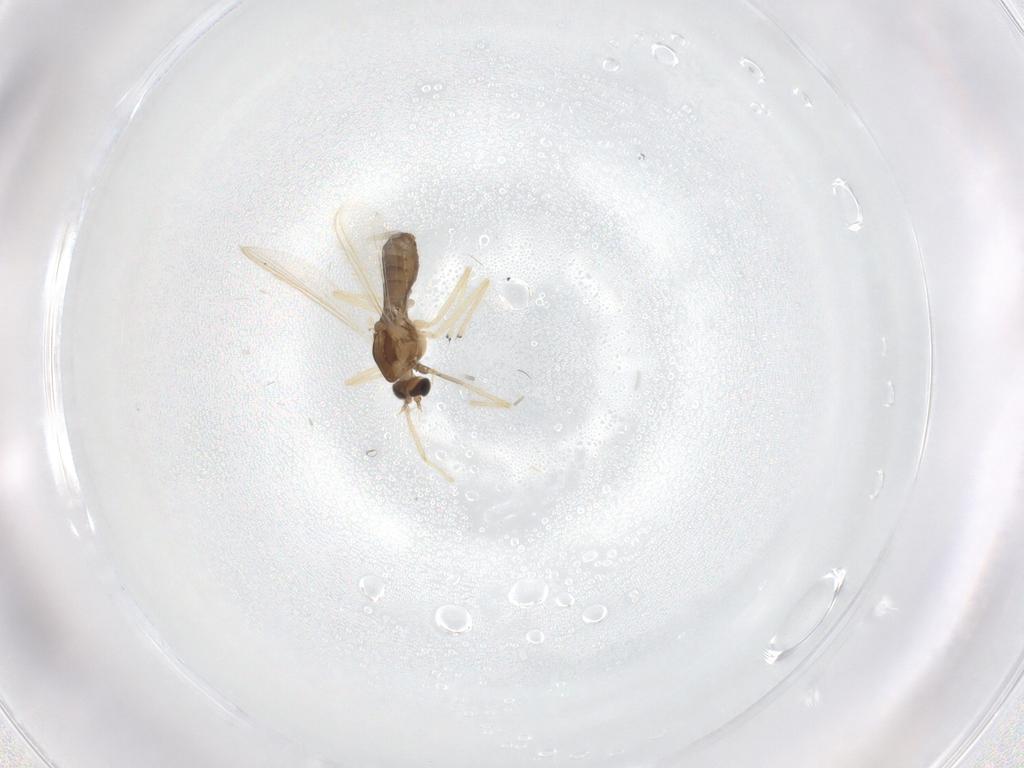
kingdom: Animalia
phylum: Arthropoda
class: Insecta
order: Diptera
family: Chironomidae
